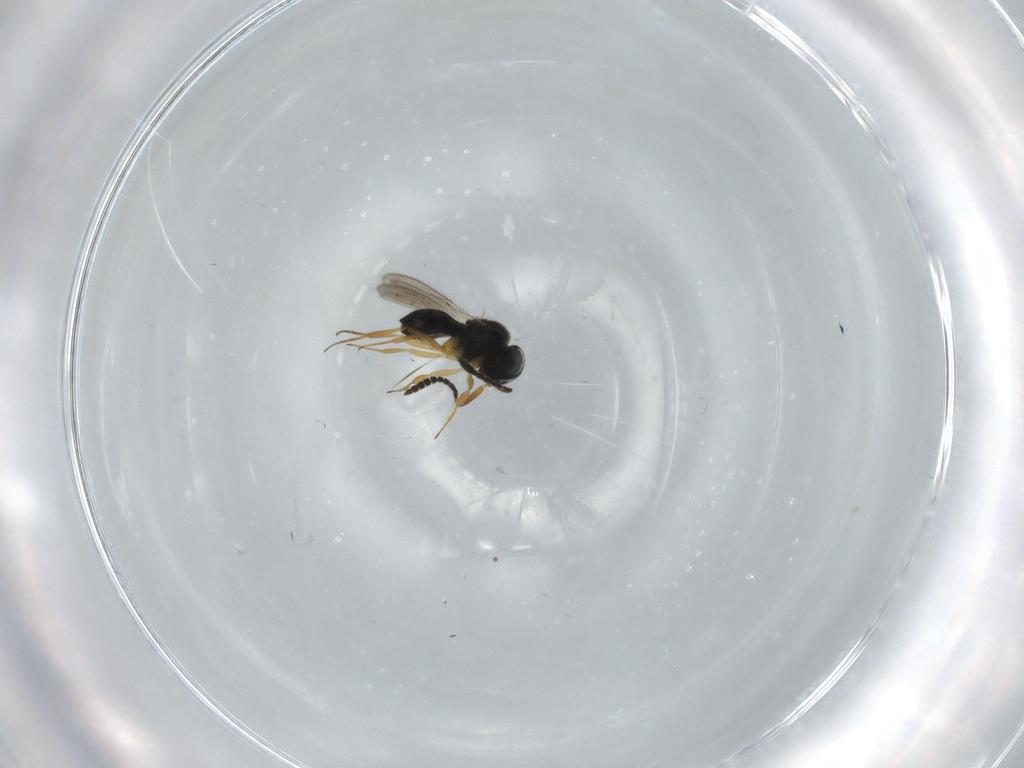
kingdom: Animalia
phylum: Arthropoda
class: Insecta
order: Hymenoptera
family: Scelionidae
